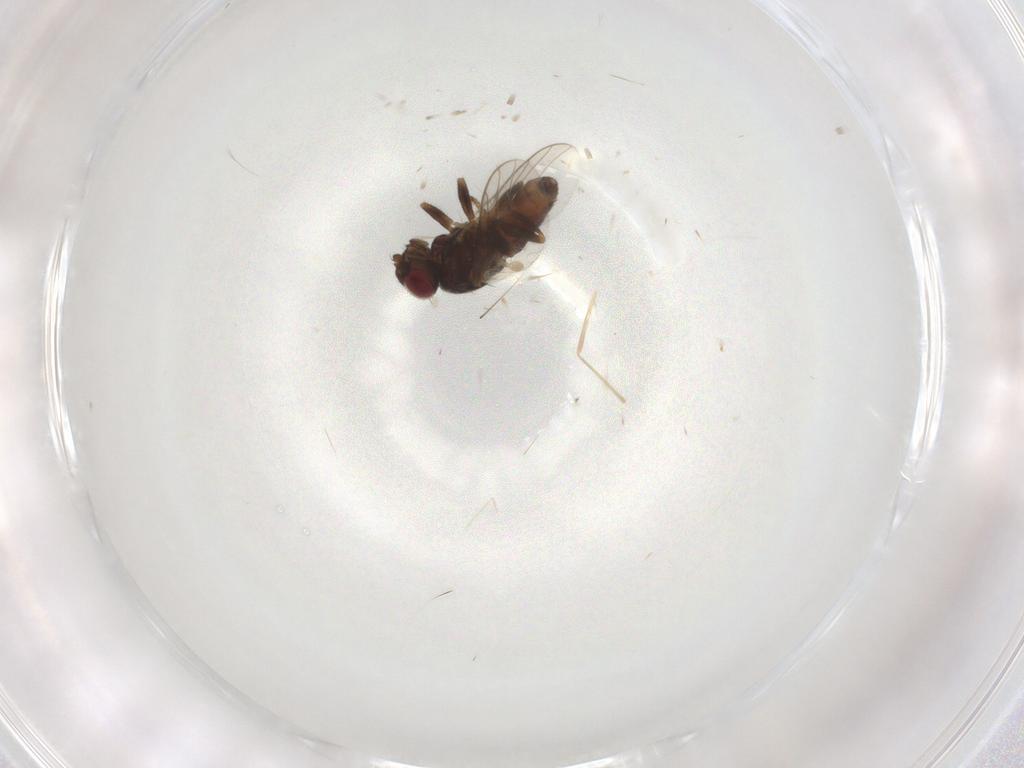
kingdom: Animalia
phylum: Arthropoda
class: Insecta
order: Diptera
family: Chloropidae
